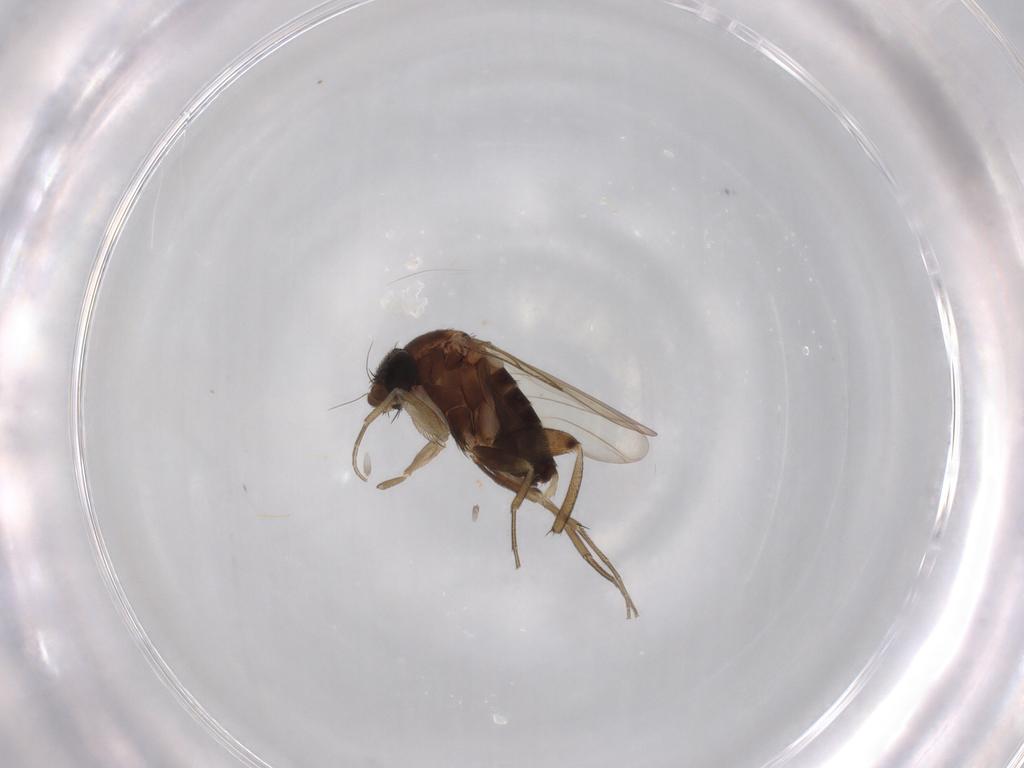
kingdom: Animalia
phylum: Arthropoda
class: Insecta
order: Diptera
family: Phoridae
